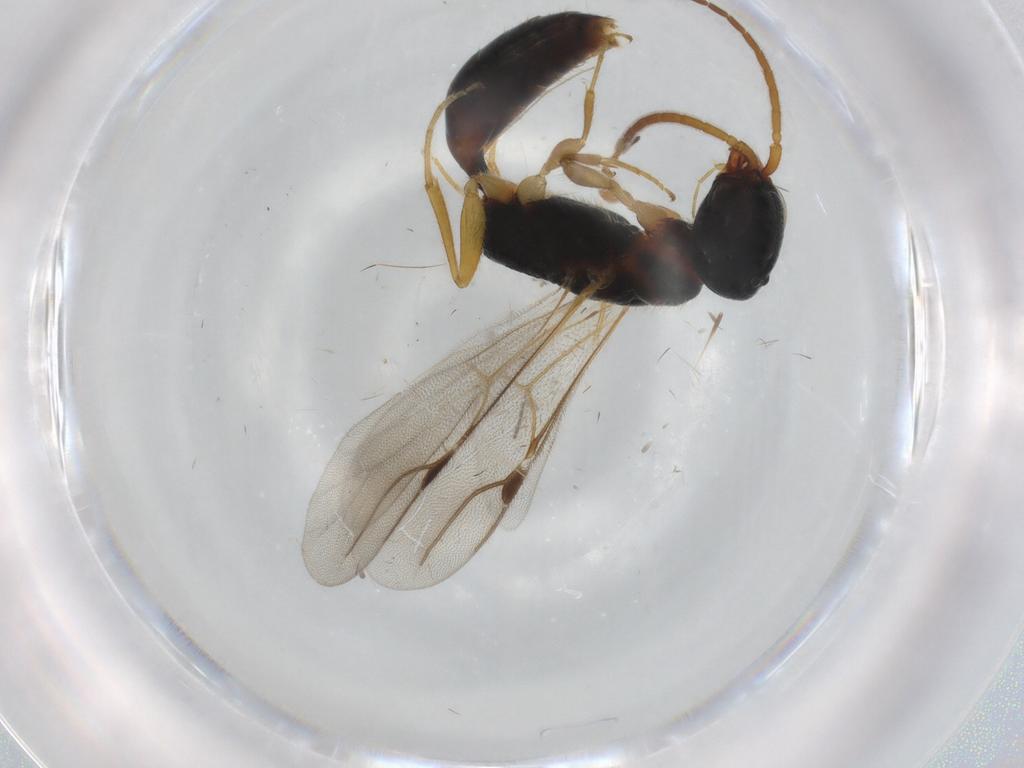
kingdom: Animalia
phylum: Arthropoda
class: Insecta
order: Hymenoptera
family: Bethylidae
